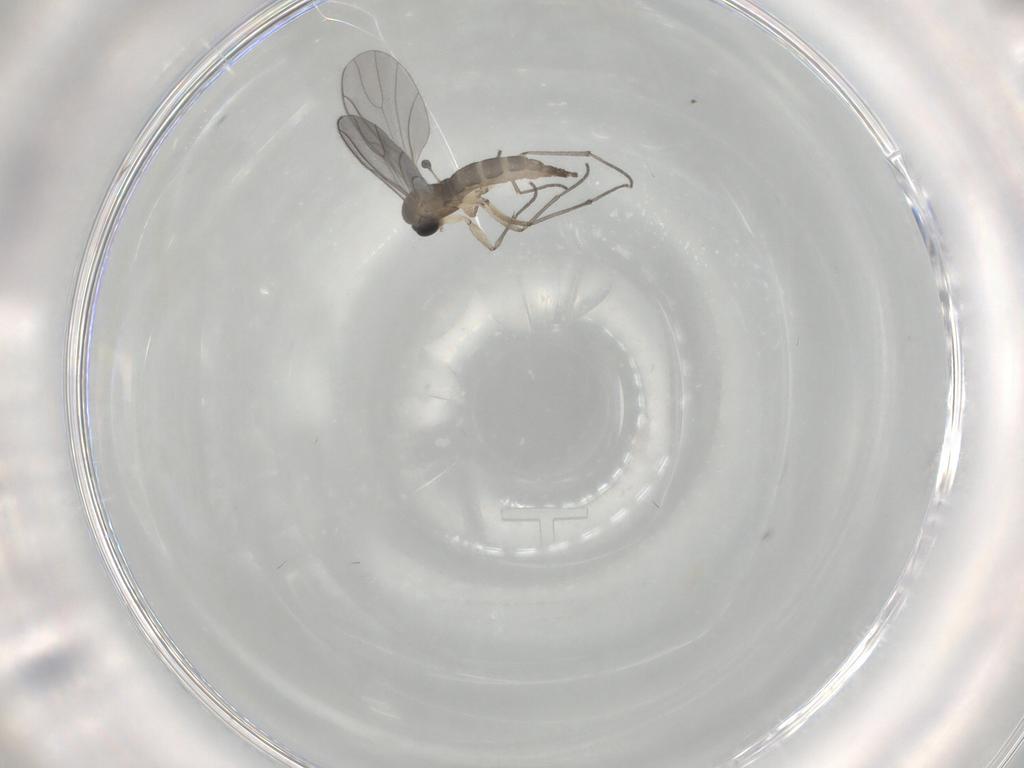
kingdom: Animalia
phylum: Arthropoda
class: Insecta
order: Diptera
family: Sciaridae
